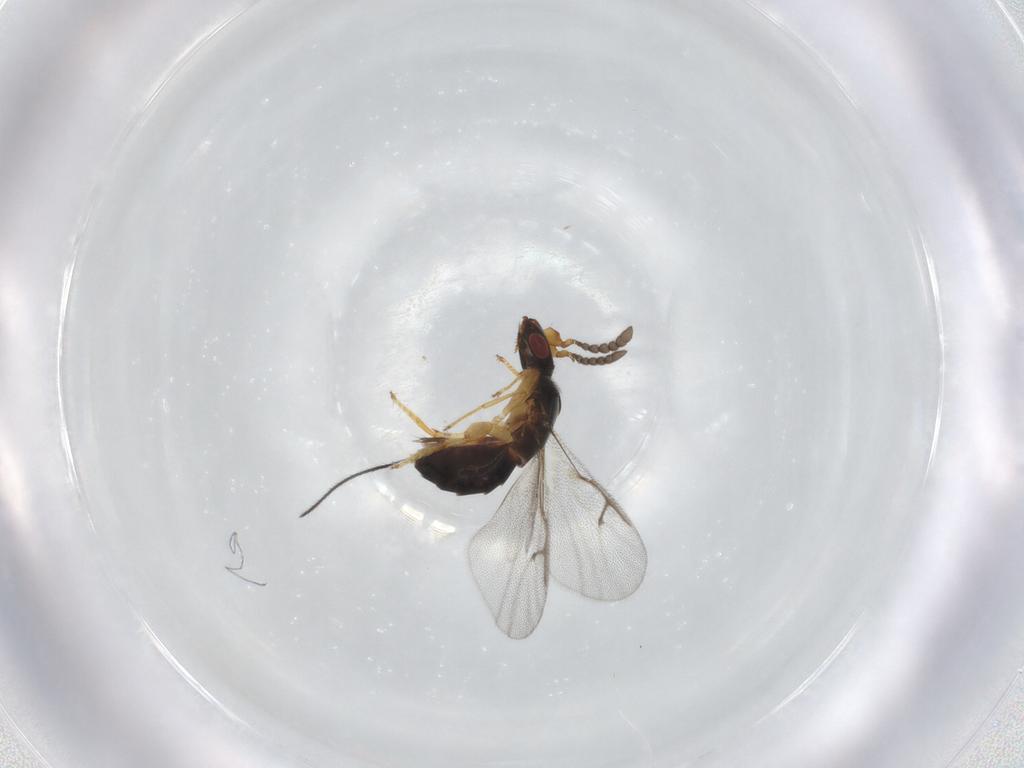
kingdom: Animalia
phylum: Arthropoda
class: Insecta
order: Hymenoptera
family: Agaonidae
